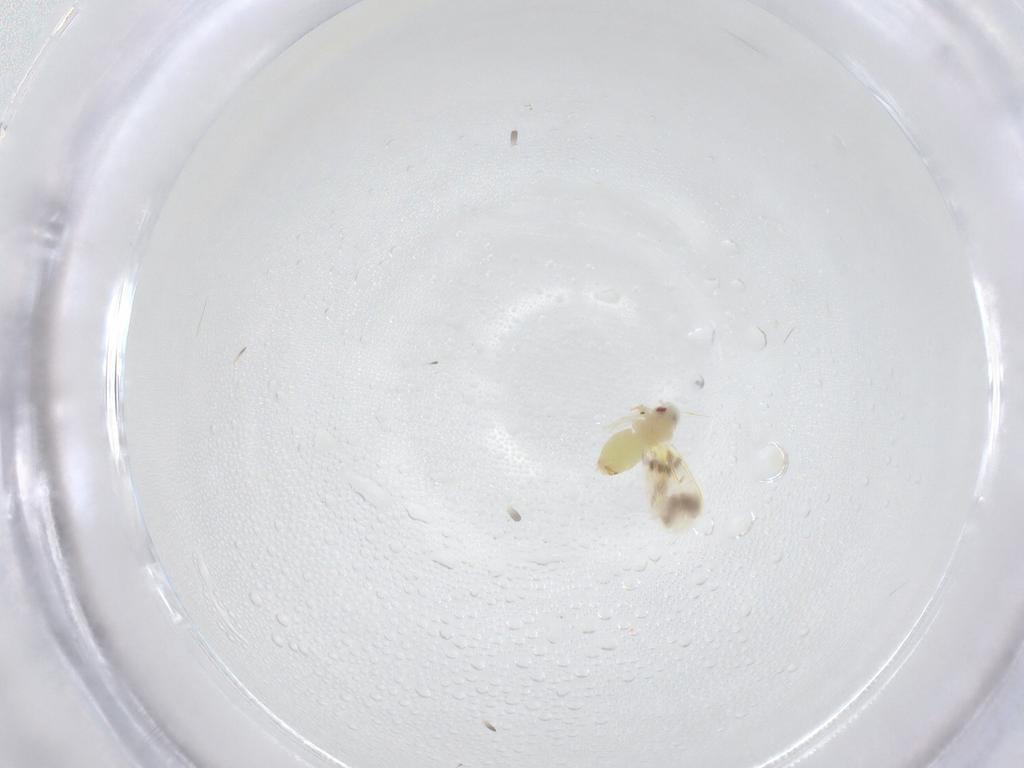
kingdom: Animalia
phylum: Arthropoda
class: Insecta
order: Hemiptera
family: Aleyrodidae
